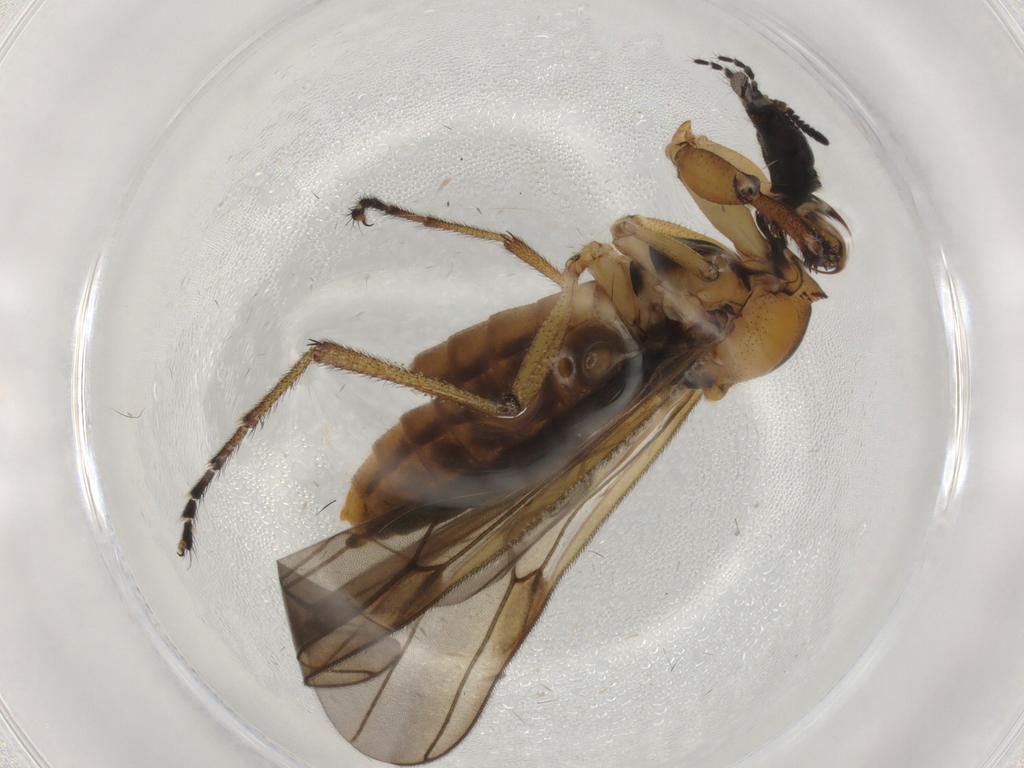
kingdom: Animalia
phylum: Arthropoda
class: Insecta
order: Diptera
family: Bibionidae
